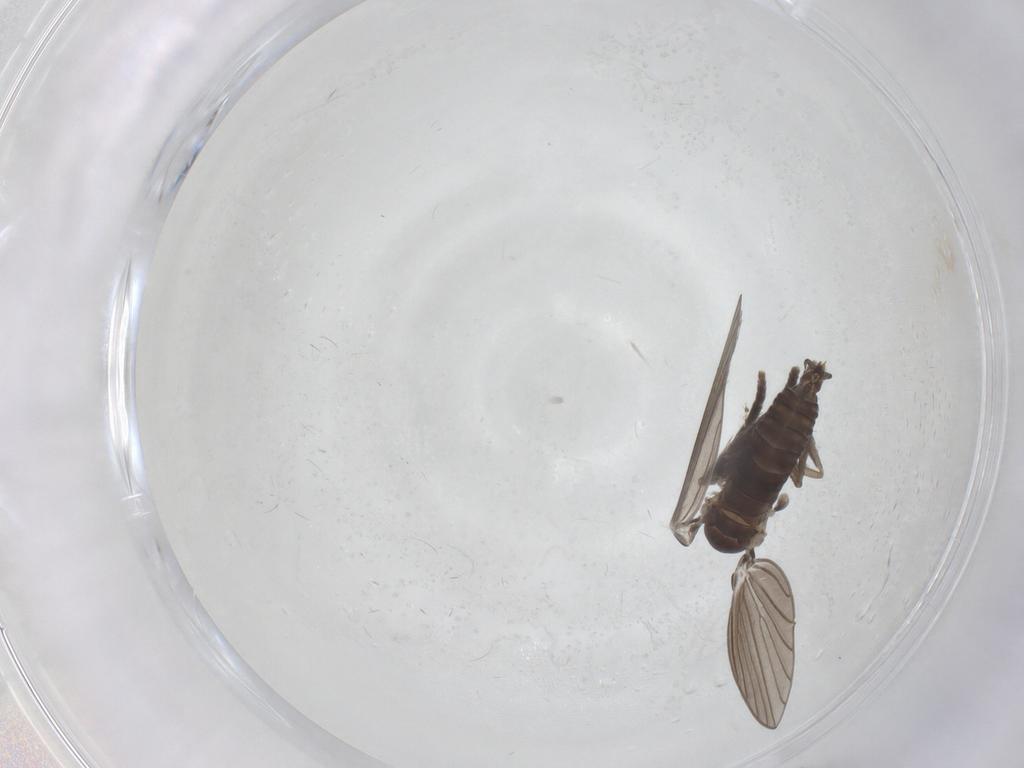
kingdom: Animalia
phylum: Arthropoda
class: Insecta
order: Diptera
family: Psychodidae
